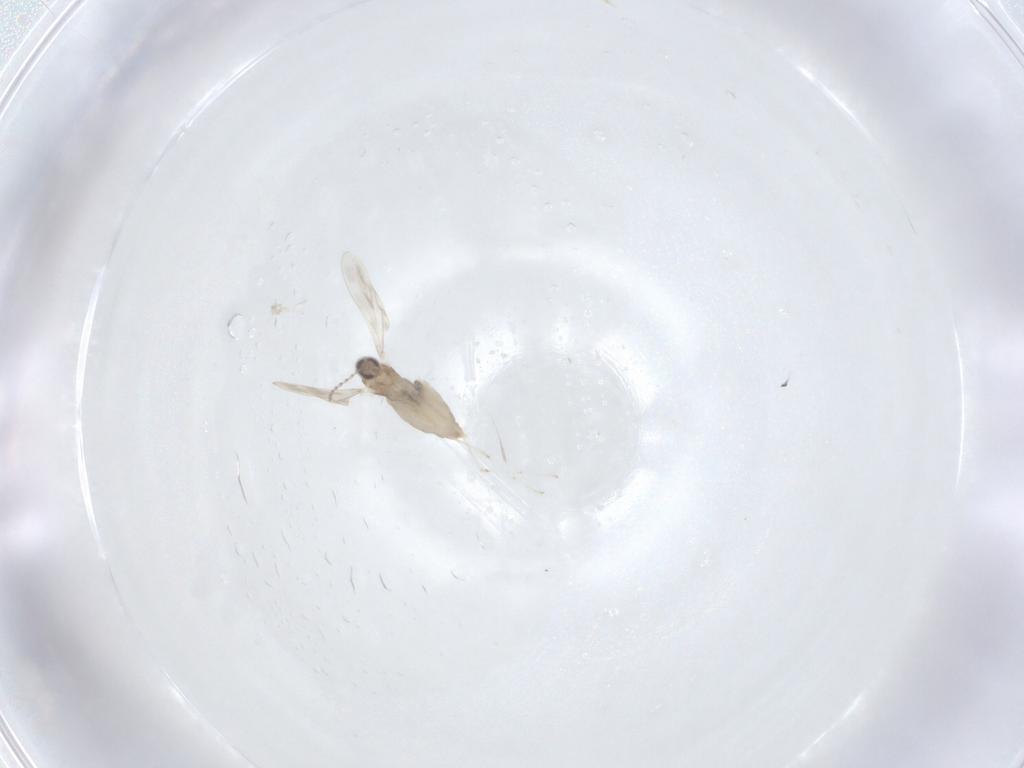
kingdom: Animalia
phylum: Arthropoda
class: Insecta
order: Diptera
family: Cecidomyiidae
